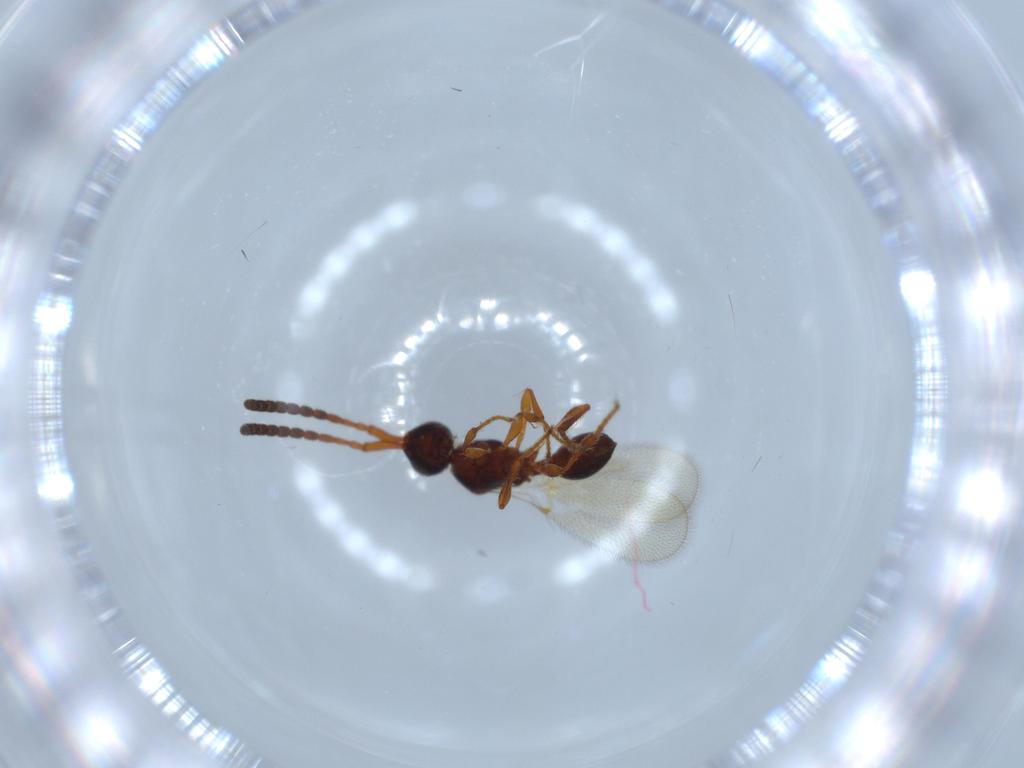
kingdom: Animalia
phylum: Arthropoda
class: Insecta
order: Hymenoptera
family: Diapriidae
